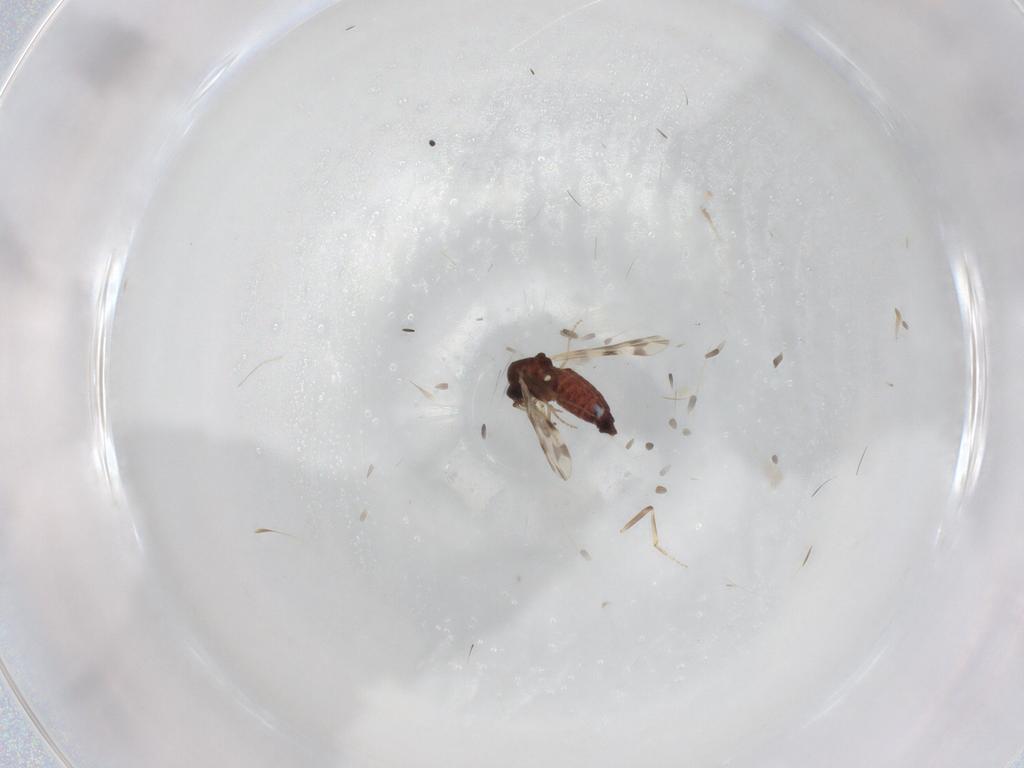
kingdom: Animalia
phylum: Arthropoda
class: Insecta
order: Diptera
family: Ceratopogonidae
